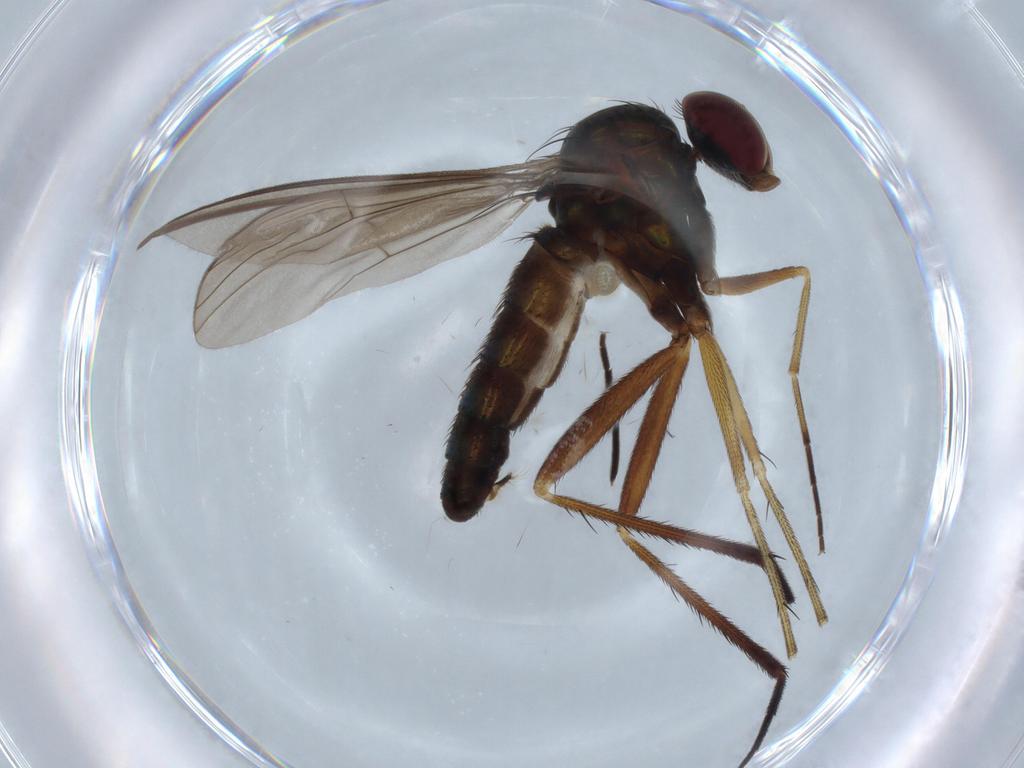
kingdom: Animalia
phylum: Arthropoda
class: Insecta
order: Diptera
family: Dolichopodidae
